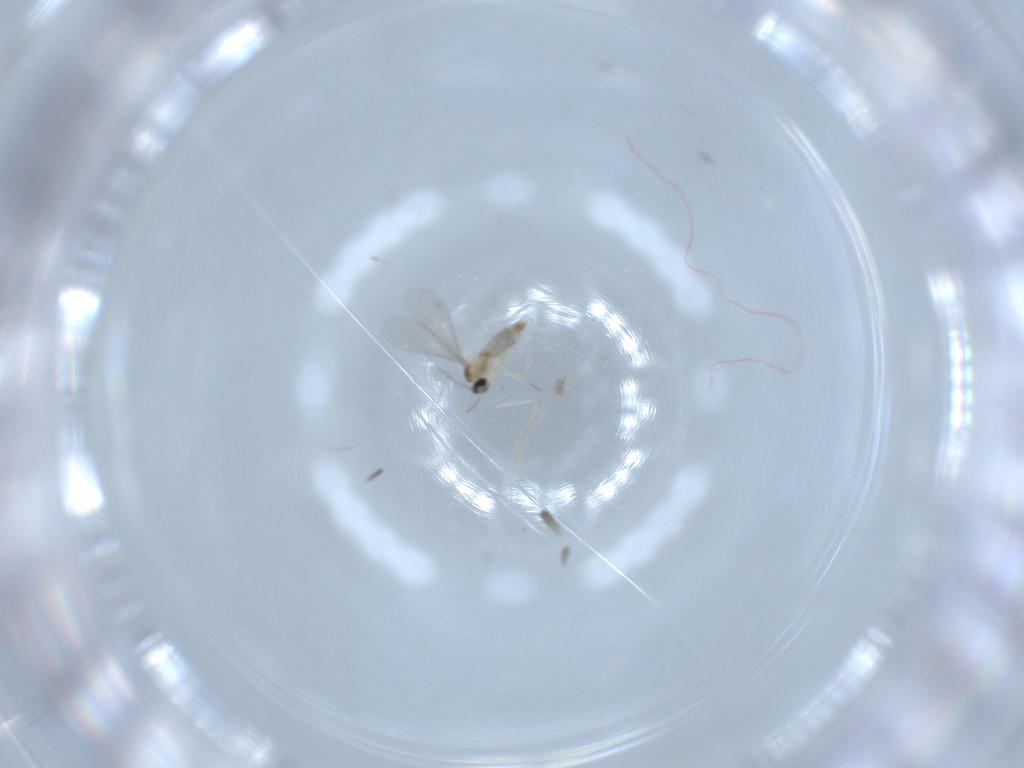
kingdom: Animalia
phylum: Arthropoda
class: Insecta
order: Diptera
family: Cecidomyiidae
